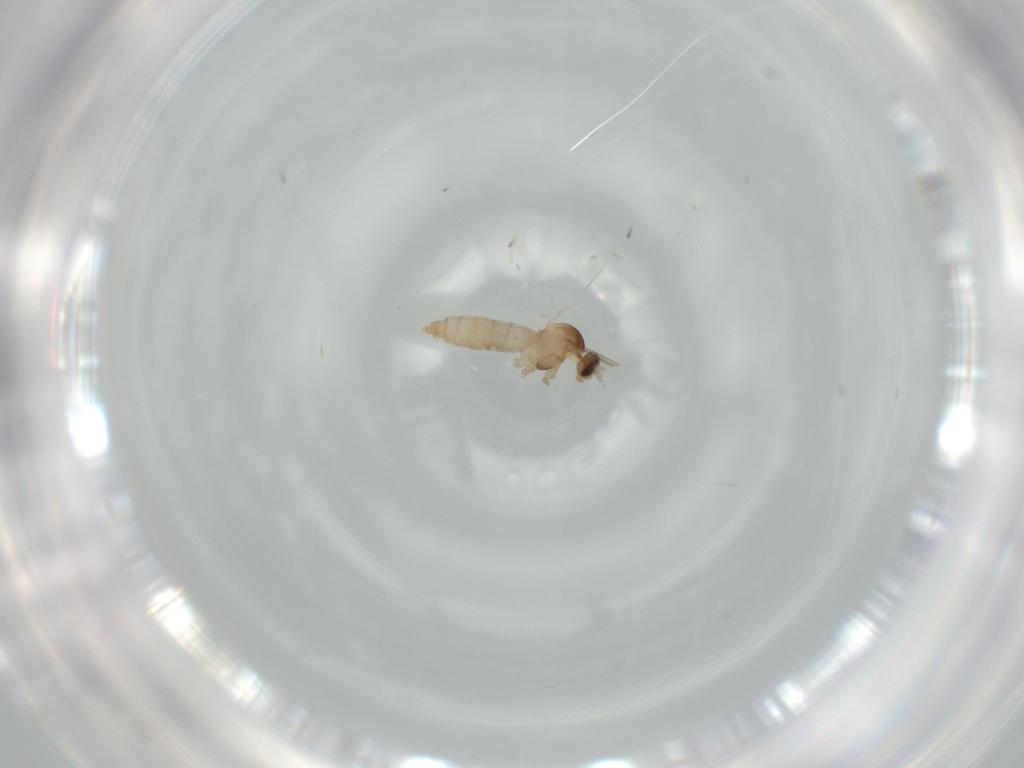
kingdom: Animalia
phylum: Arthropoda
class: Insecta
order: Diptera
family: Cecidomyiidae
